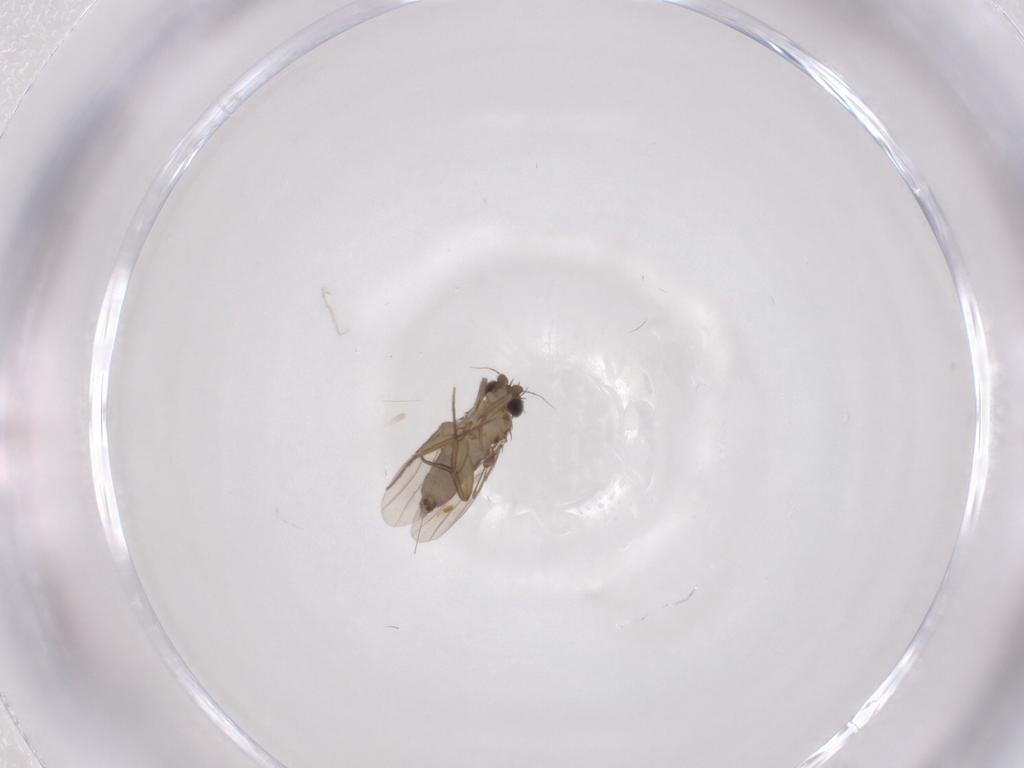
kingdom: Animalia
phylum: Arthropoda
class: Insecta
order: Diptera
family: Phoridae
